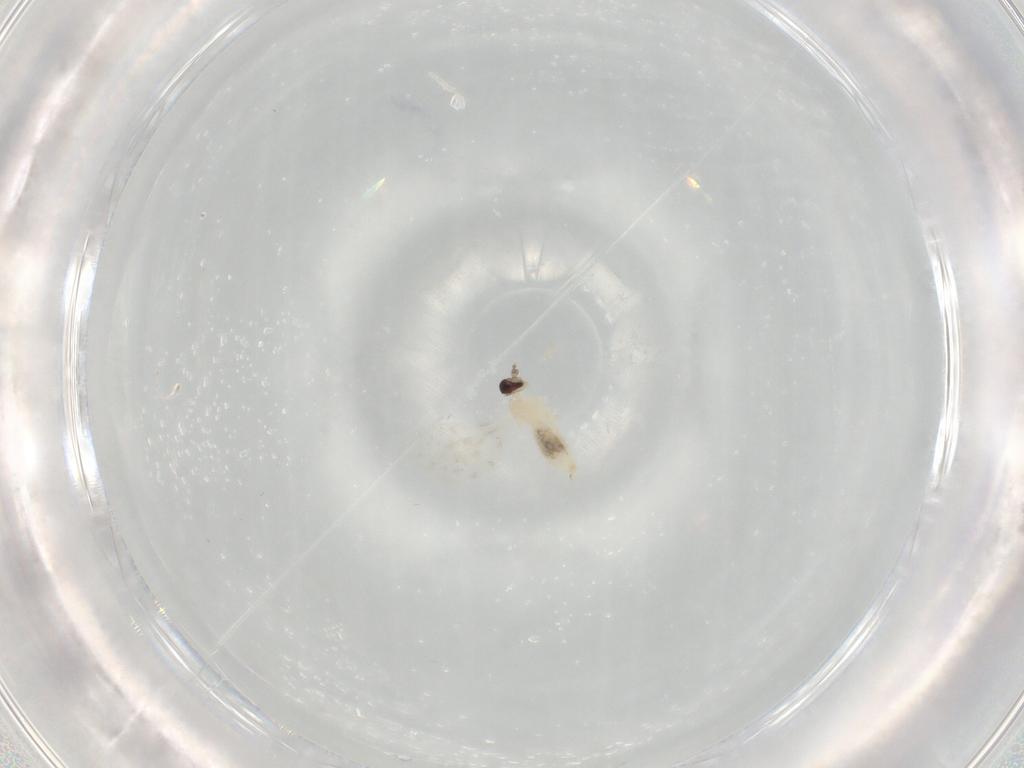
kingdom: Animalia
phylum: Arthropoda
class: Insecta
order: Diptera
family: Cecidomyiidae
